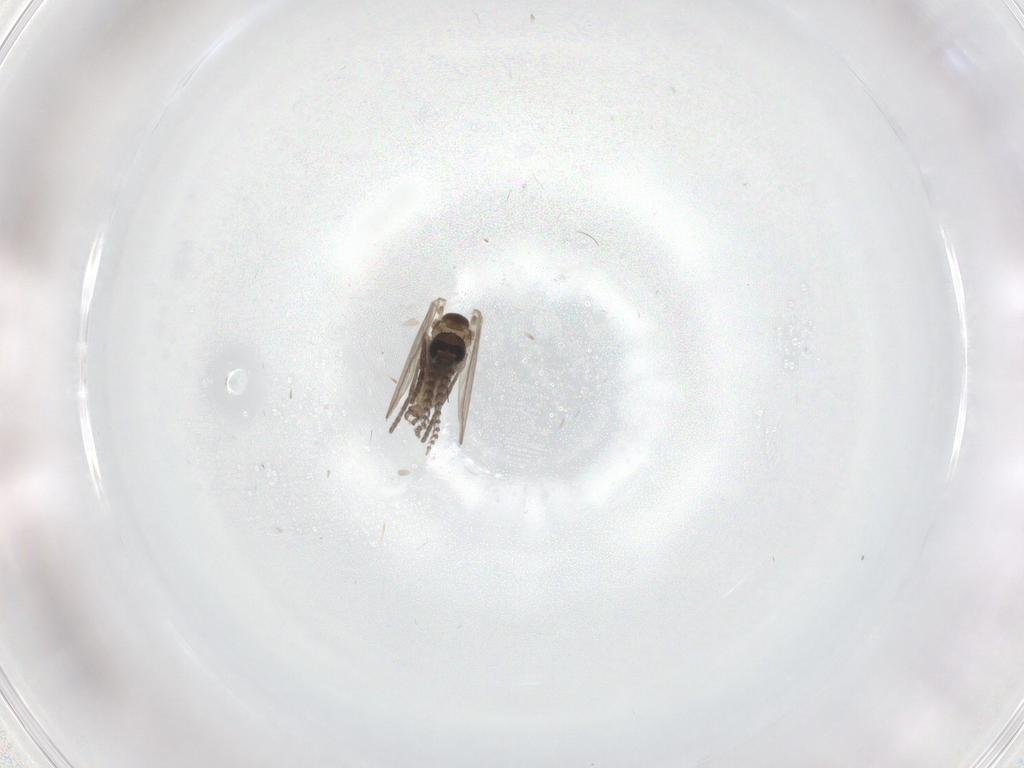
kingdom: Animalia
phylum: Arthropoda
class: Insecta
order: Diptera
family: Psychodidae
